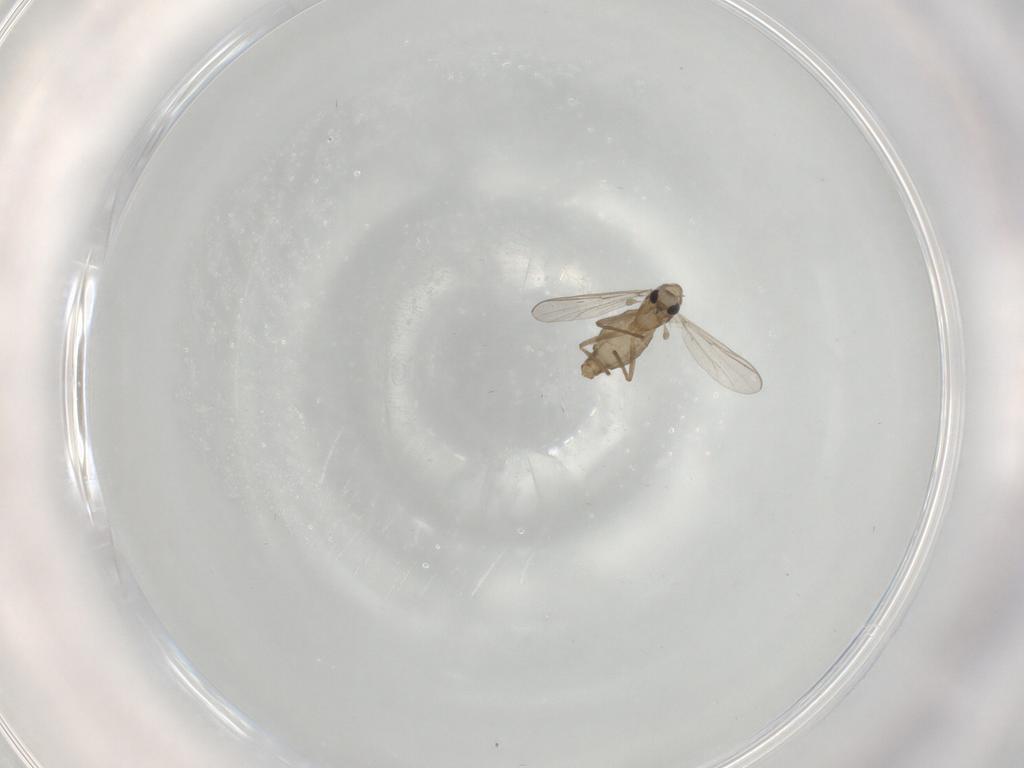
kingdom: Animalia
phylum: Arthropoda
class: Insecta
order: Diptera
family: Chironomidae
